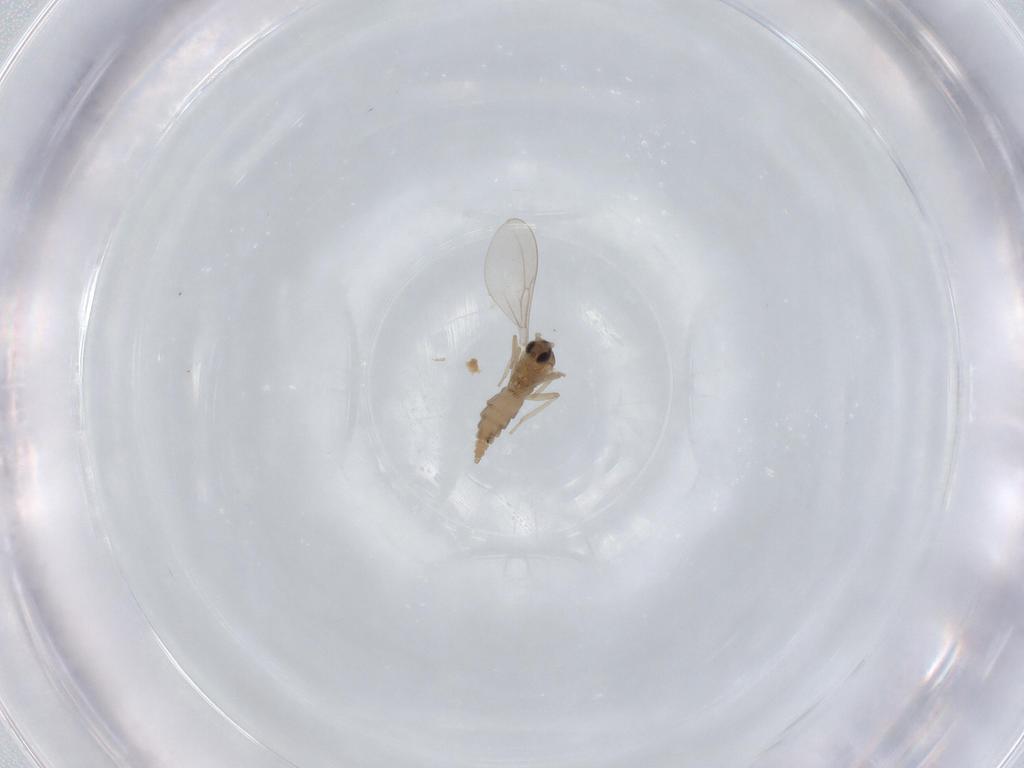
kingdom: Animalia
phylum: Arthropoda
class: Insecta
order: Diptera
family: Cecidomyiidae
